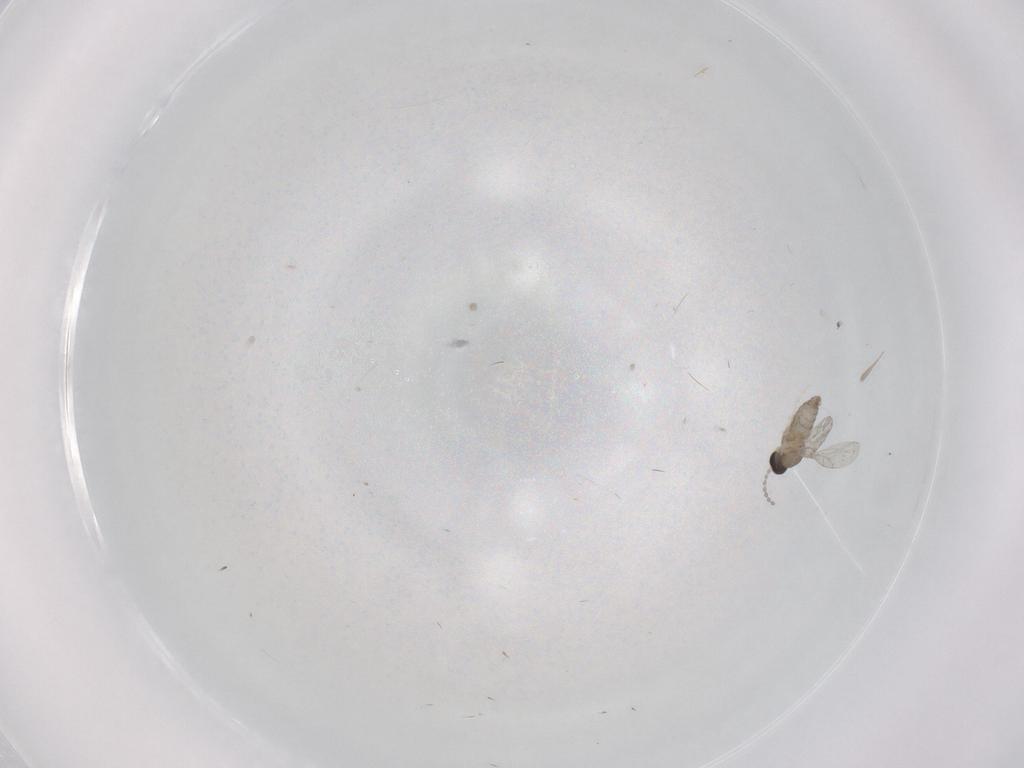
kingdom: Animalia
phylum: Arthropoda
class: Insecta
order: Diptera
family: Cecidomyiidae
